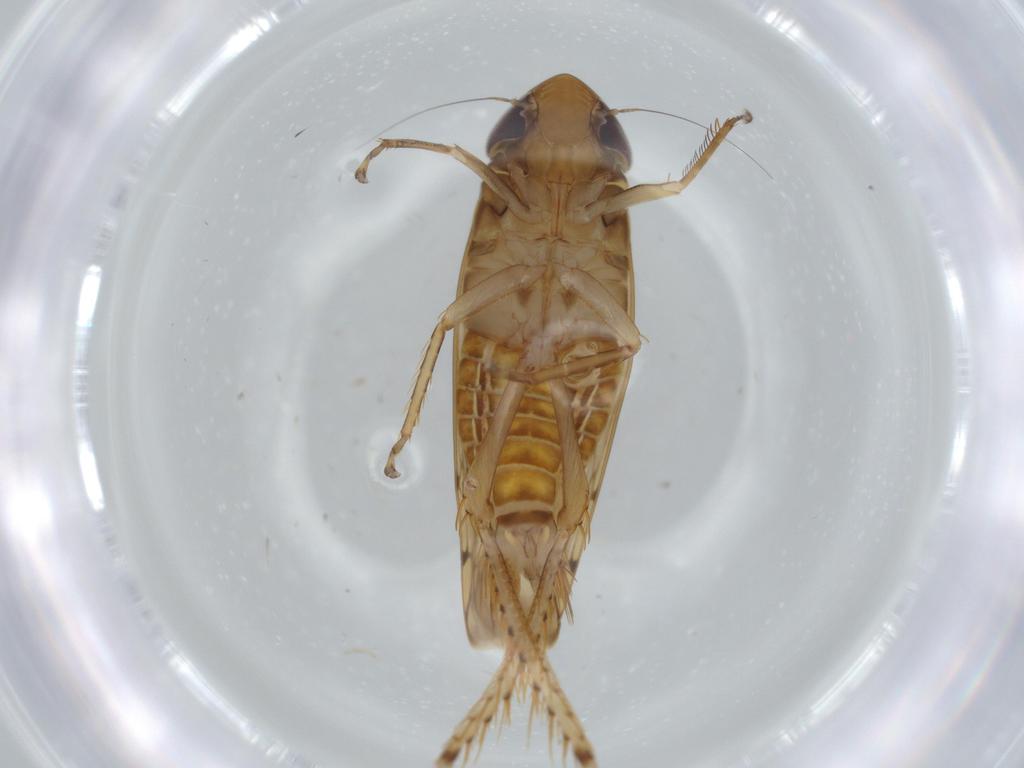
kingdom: Animalia
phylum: Arthropoda
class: Insecta
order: Hemiptera
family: Cicadellidae
